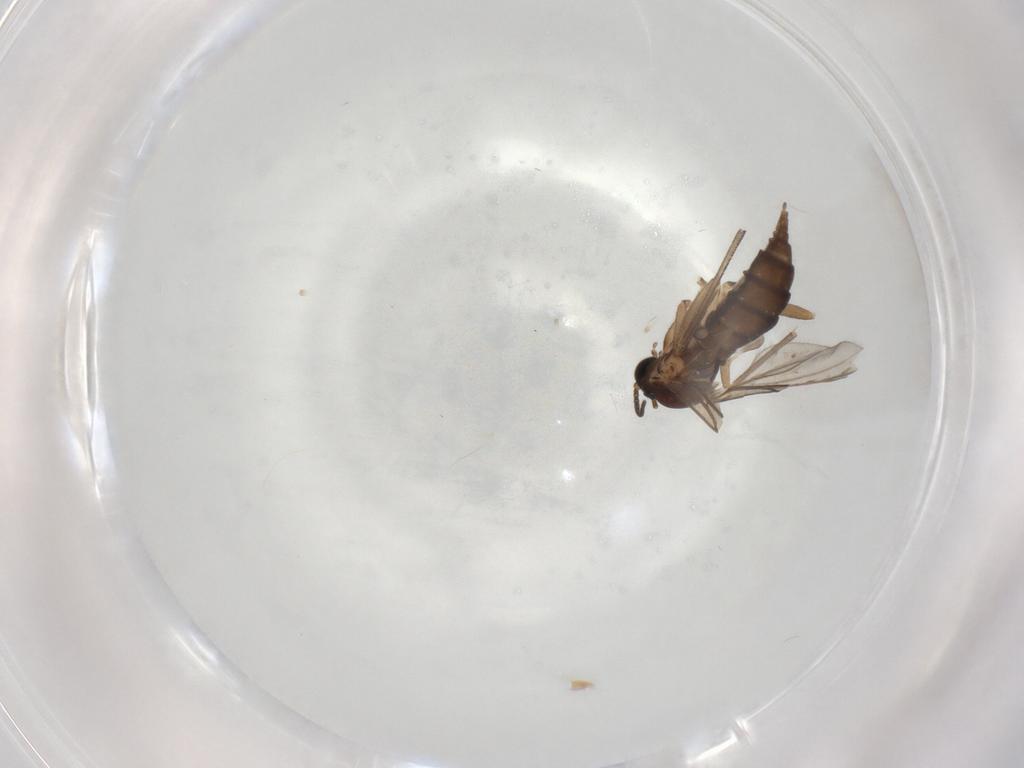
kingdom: Animalia
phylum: Arthropoda
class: Insecta
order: Diptera
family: Sciaridae
